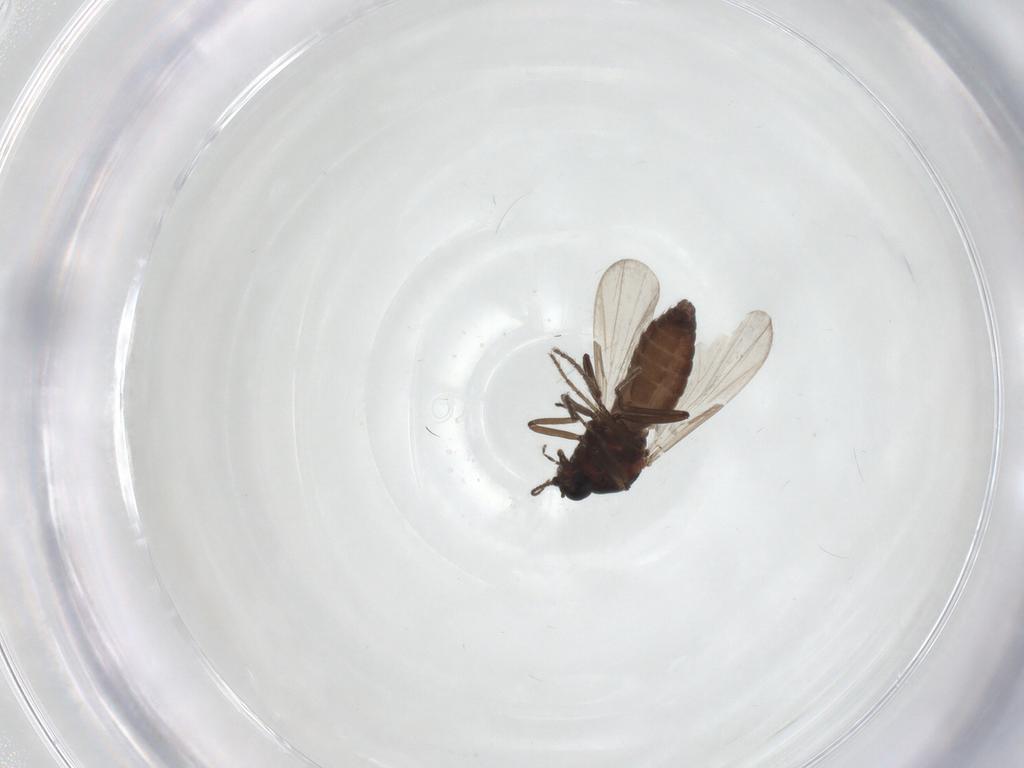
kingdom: Animalia
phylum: Arthropoda
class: Insecta
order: Diptera
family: Ceratopogonidae
